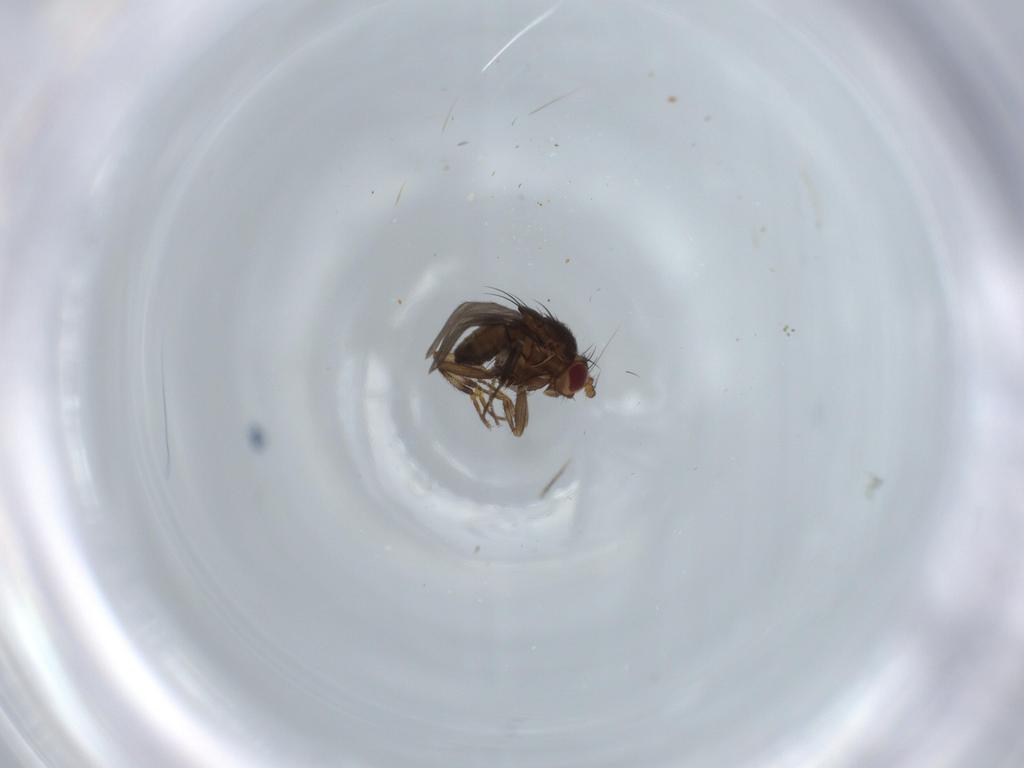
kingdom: Animalia
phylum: Arthropoda
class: Insecta
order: Diptera
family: Sphaeroceridae
